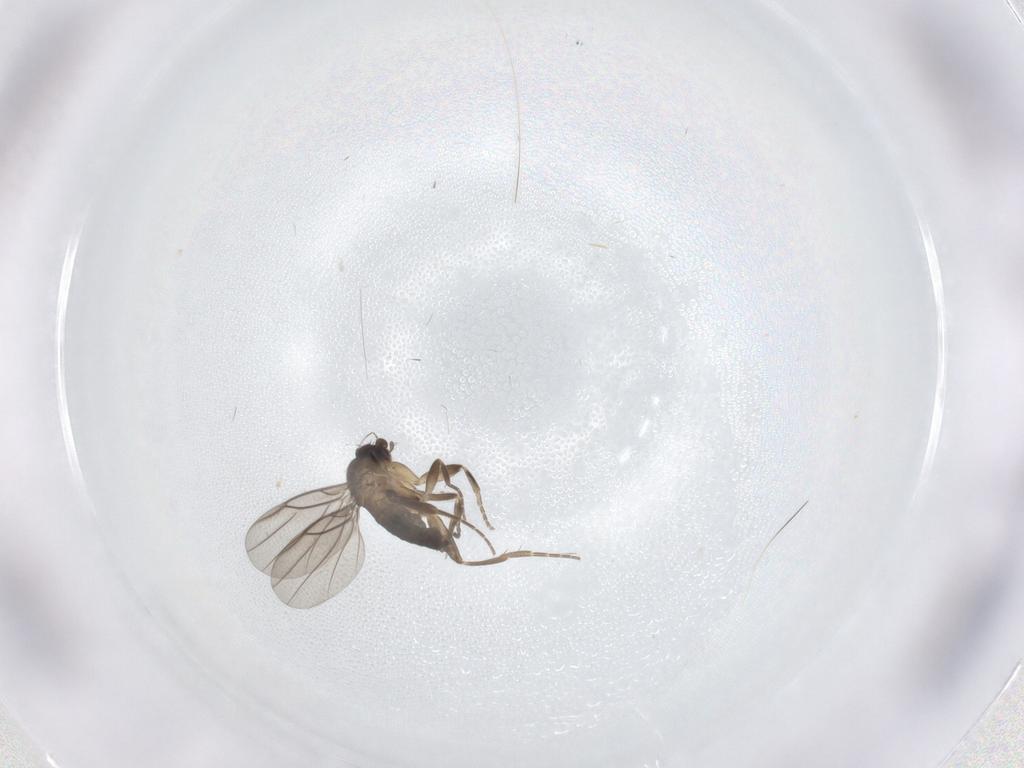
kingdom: Animalia
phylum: Arthropoda
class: Insecta
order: Diptera
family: Phoridae
